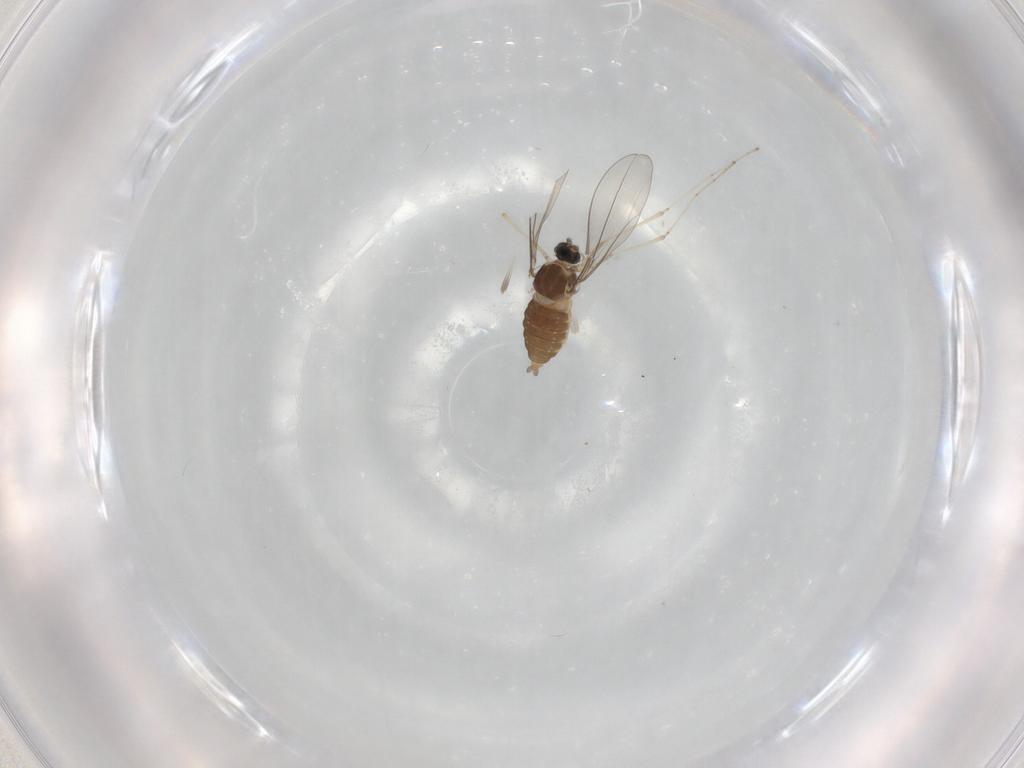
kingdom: Animalia
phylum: Arthropoda
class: Insecta
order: Diptera
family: Cecidomyiidae
